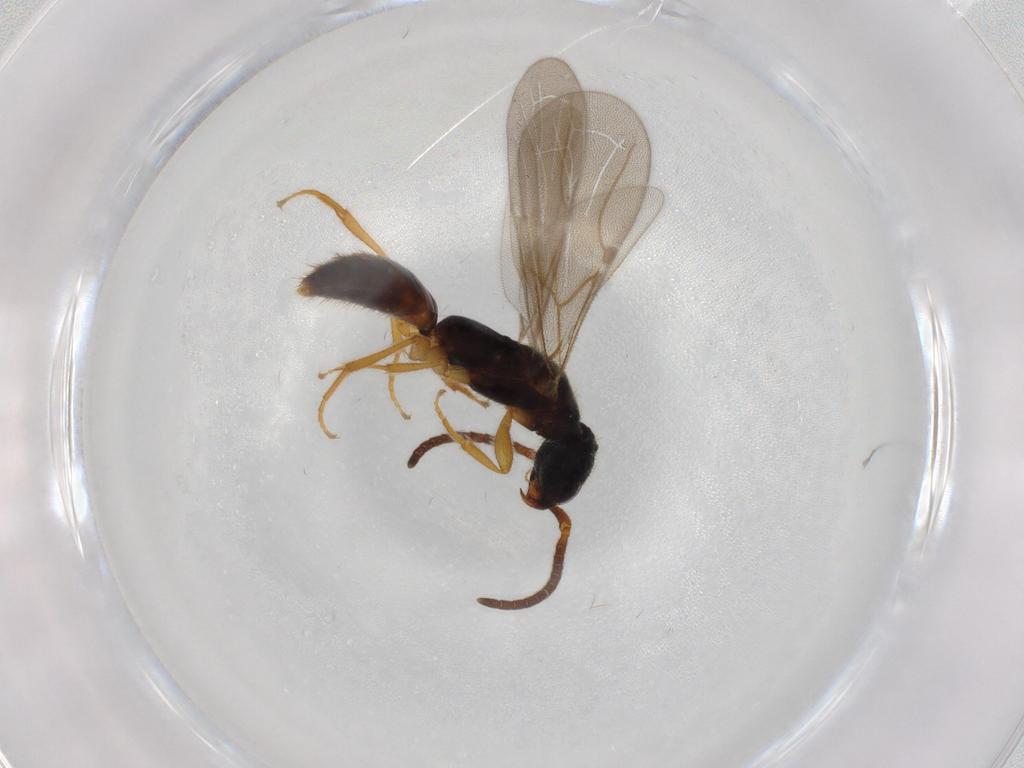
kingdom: Animalia
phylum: Arthropoda
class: Insecta
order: Hymenoptera
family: Bethylidae
